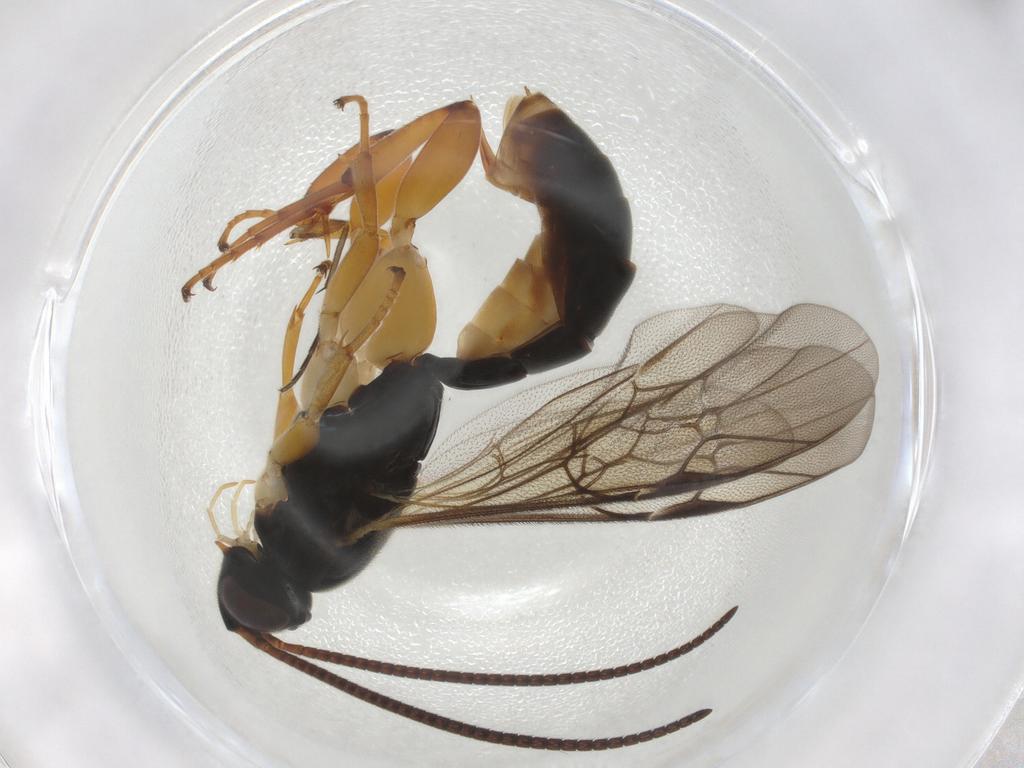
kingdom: Animalia
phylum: Arthropoda
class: Insecta
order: Hymenoptera
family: Ichneumonidae
